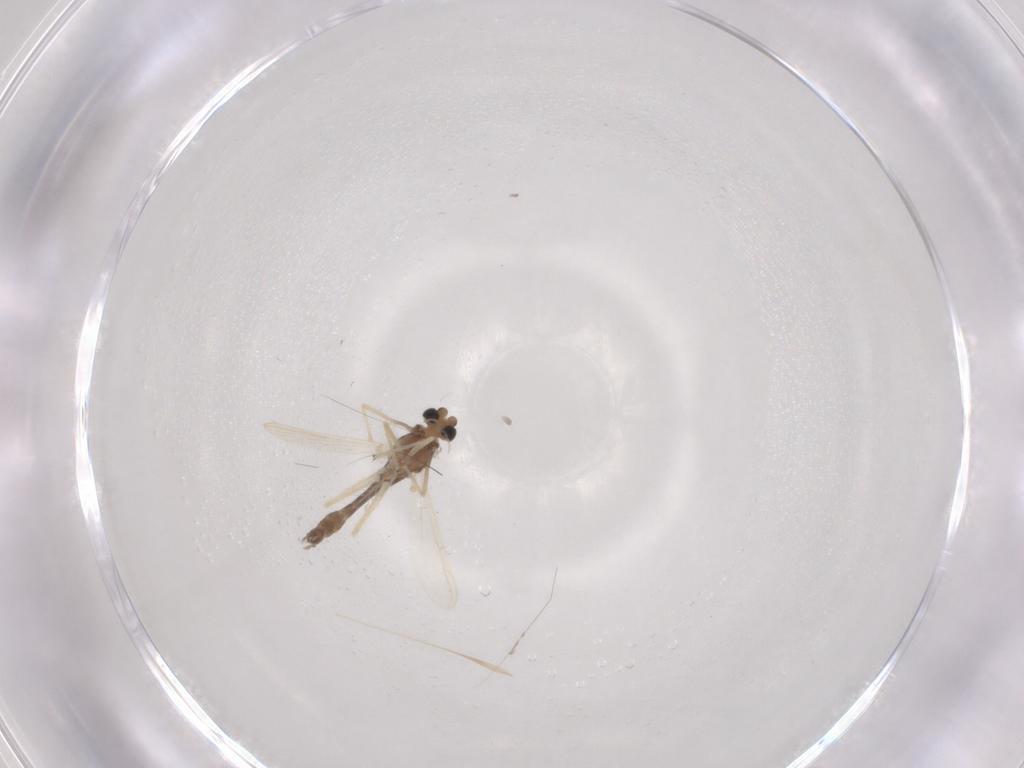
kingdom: Animalia
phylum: Arthropoda
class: Insecta
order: Diptera
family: Chironomidae
